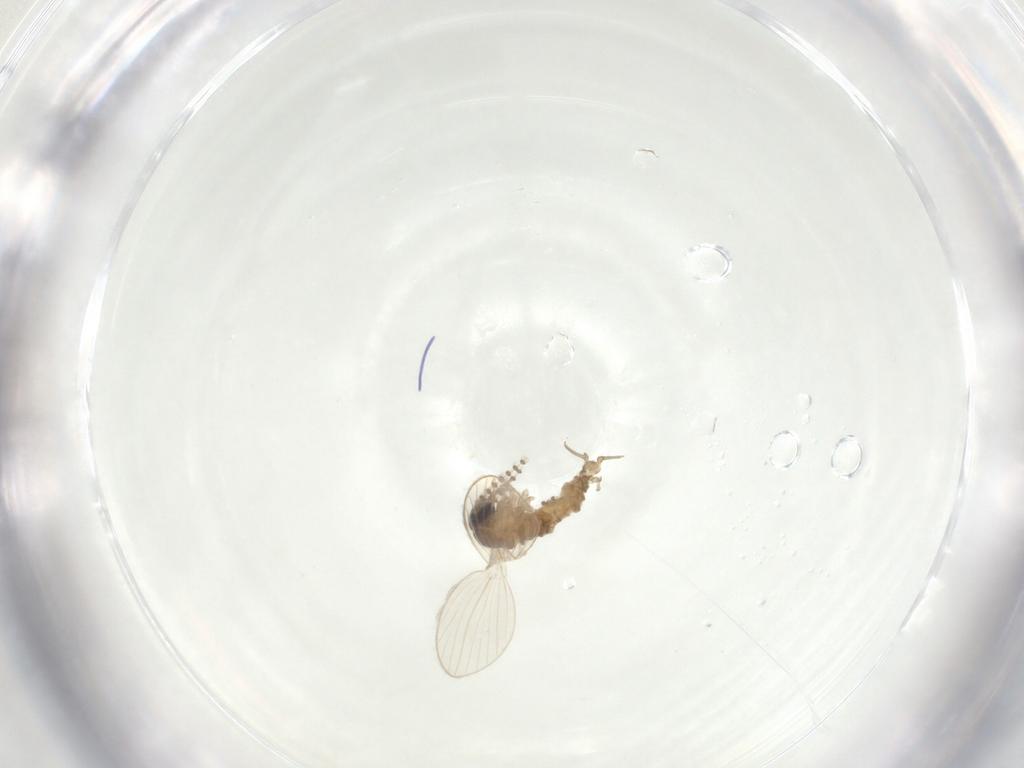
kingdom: Animalia
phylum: Arthropoda
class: Insecta
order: Diptera
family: Psychodidae
